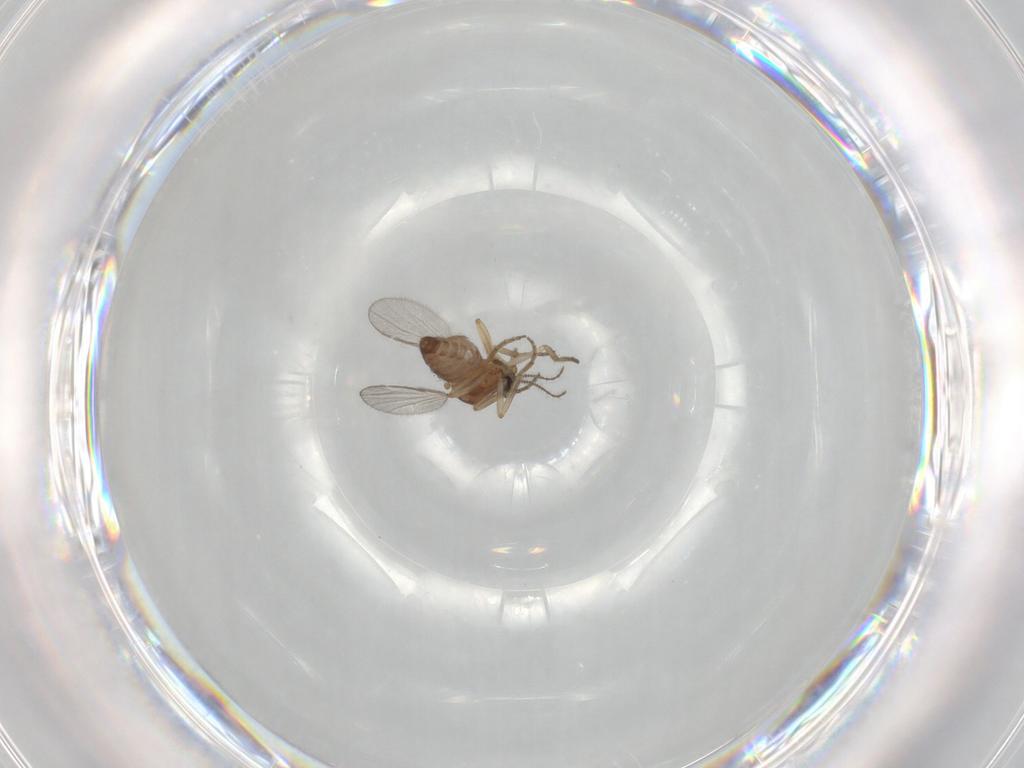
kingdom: Animalia
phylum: Arthropoda
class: Insecta
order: Diptera
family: Ceratopogonidae
